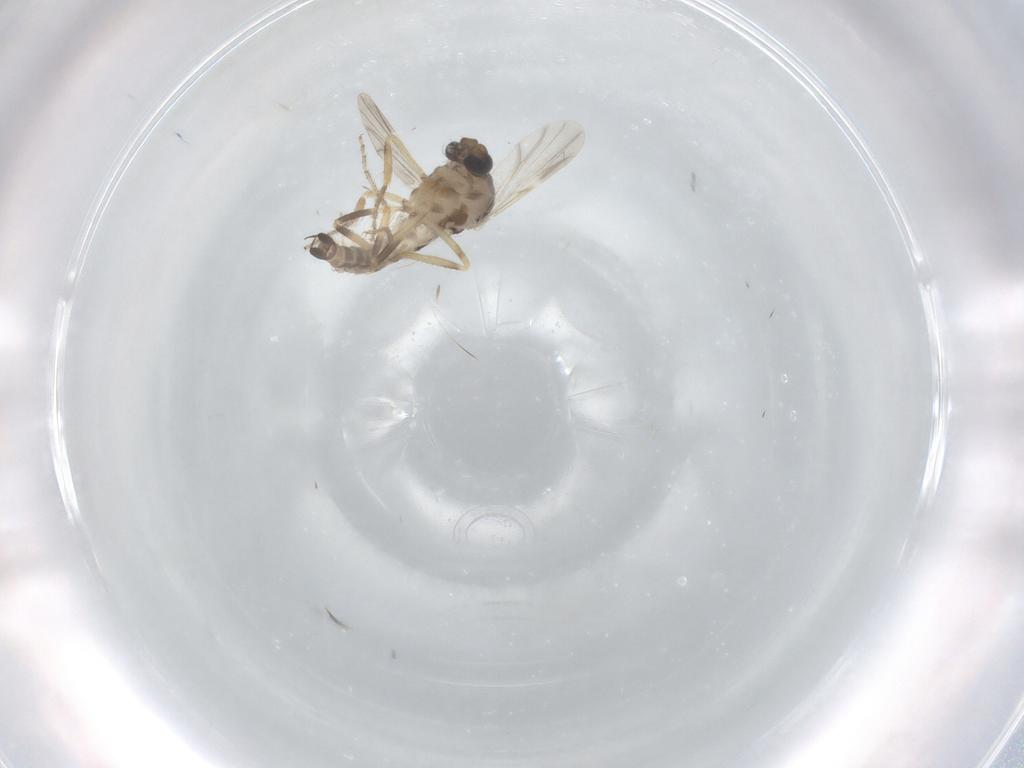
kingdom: Animalia
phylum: Arthropoda
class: Insecta
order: Diptera
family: Ceratopogonidae
